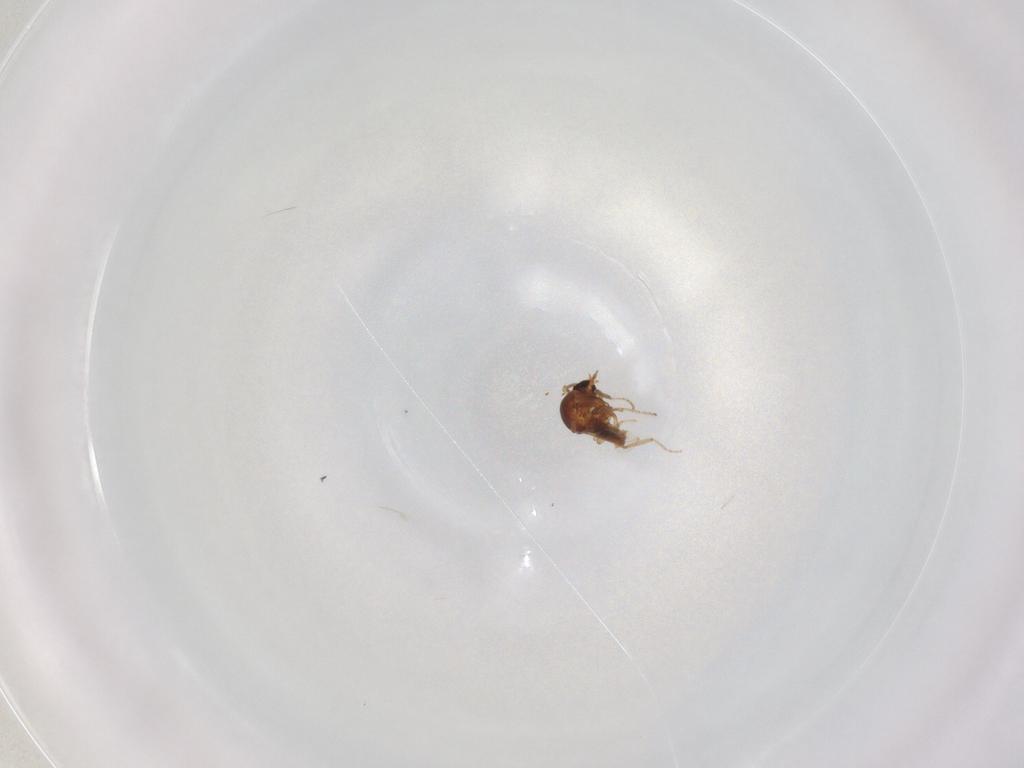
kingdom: Animalia
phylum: Arthropoda
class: Insecta
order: Diptera
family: Ceratopogonidae
